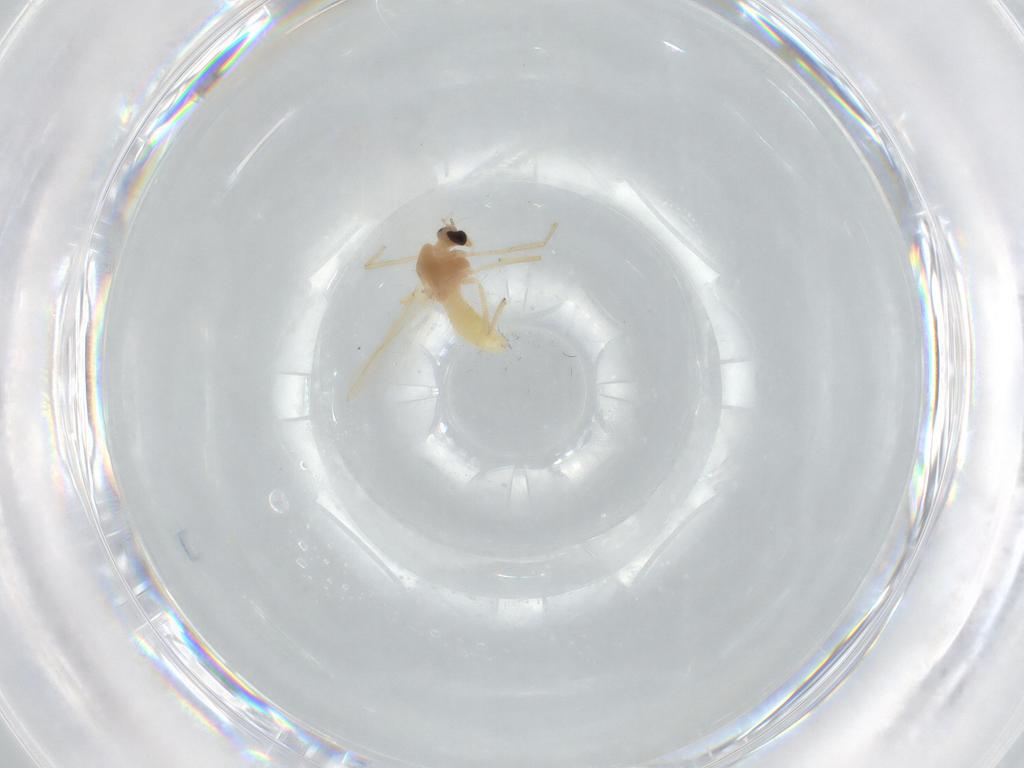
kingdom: Animalia
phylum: Arthropoda
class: Insecta
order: Diptera
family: Chironomidae
